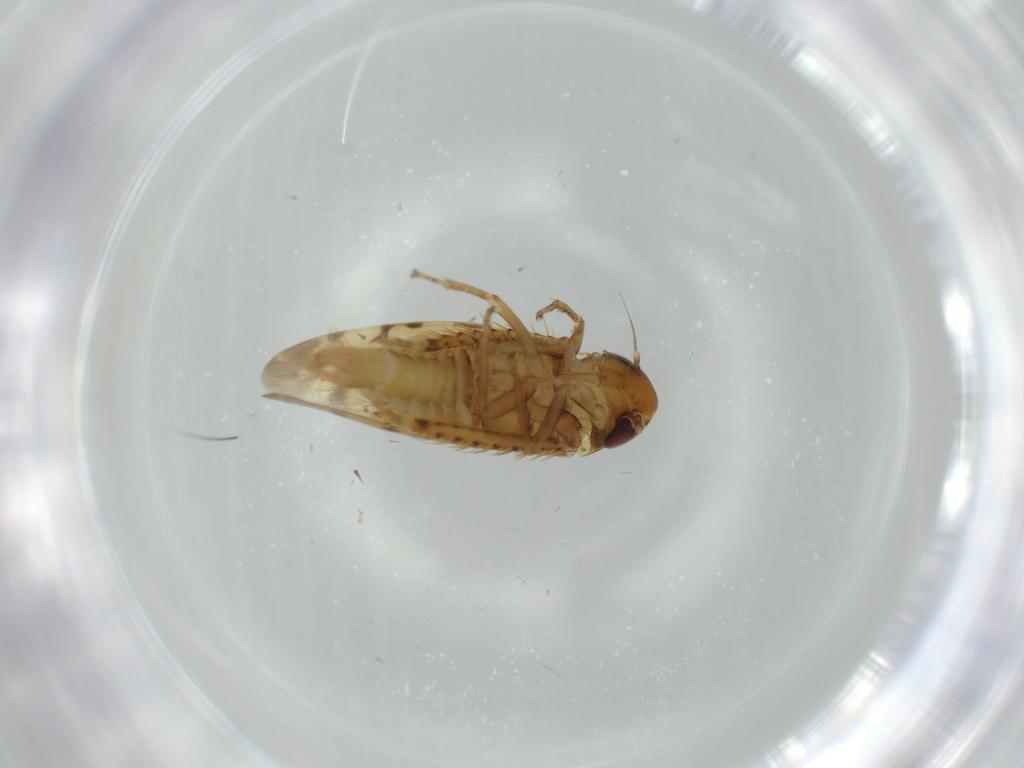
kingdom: Animalia
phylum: Arthropoda
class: Insecta
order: Hemiptera
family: Cicadellidae
